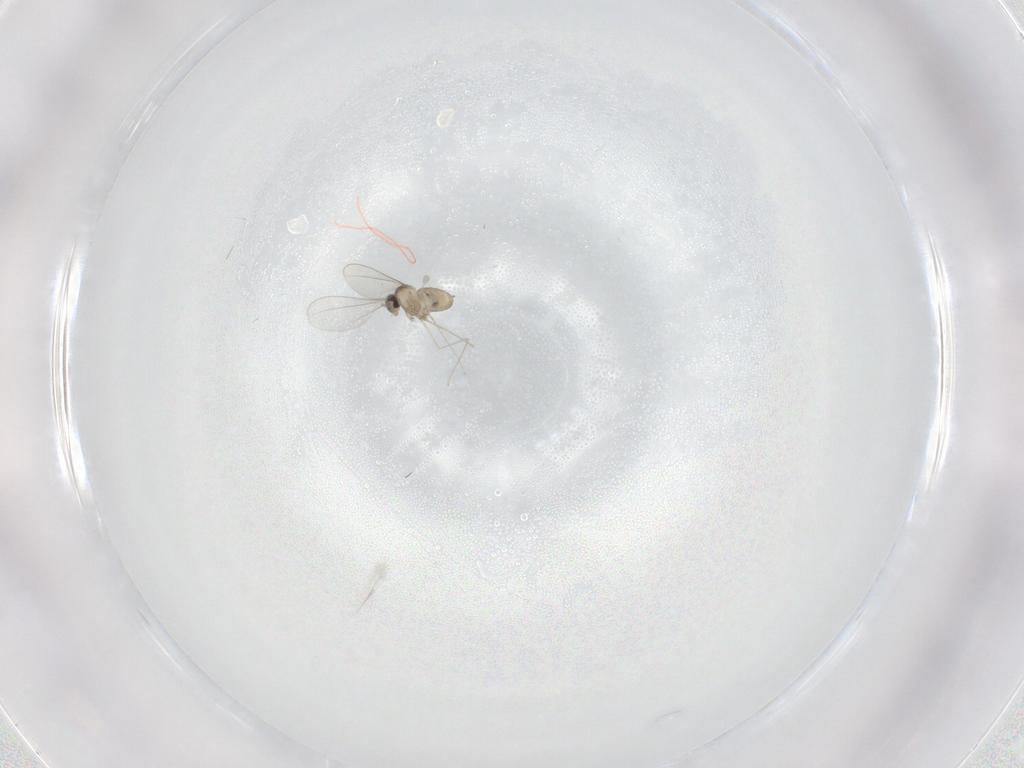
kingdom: Animalia
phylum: Arthropoda
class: Insecta
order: Diptera
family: Cecidomyiidae
